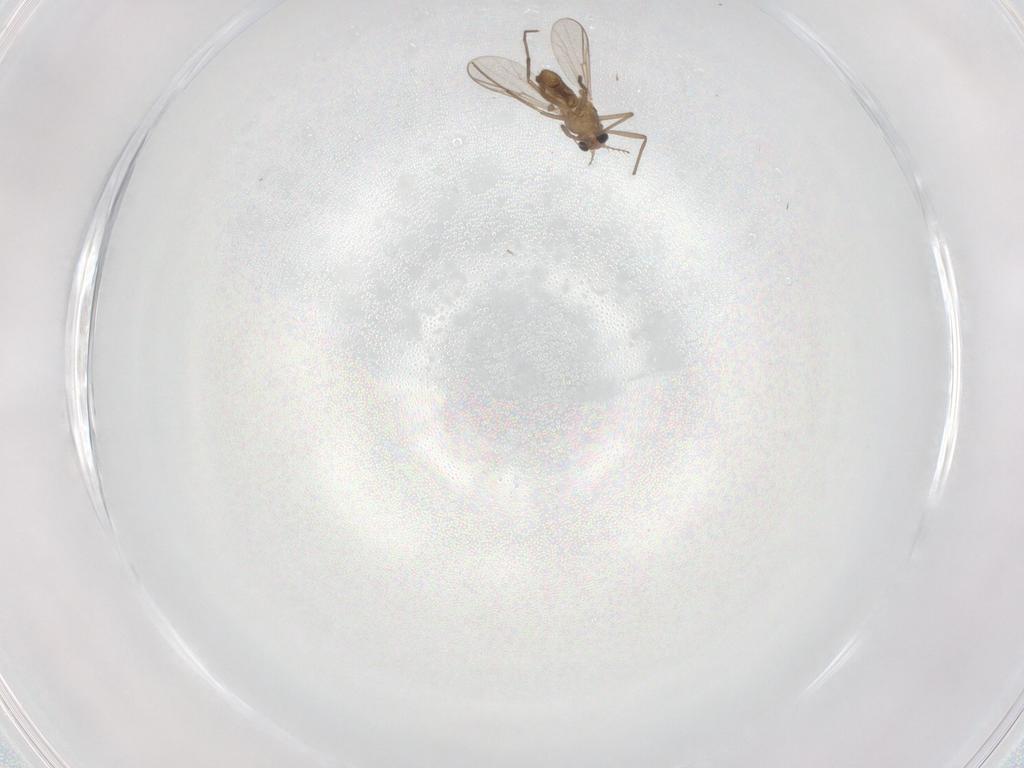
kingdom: Animalia
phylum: Arthropoda
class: Insecta
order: Diptera
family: Chironomidae
